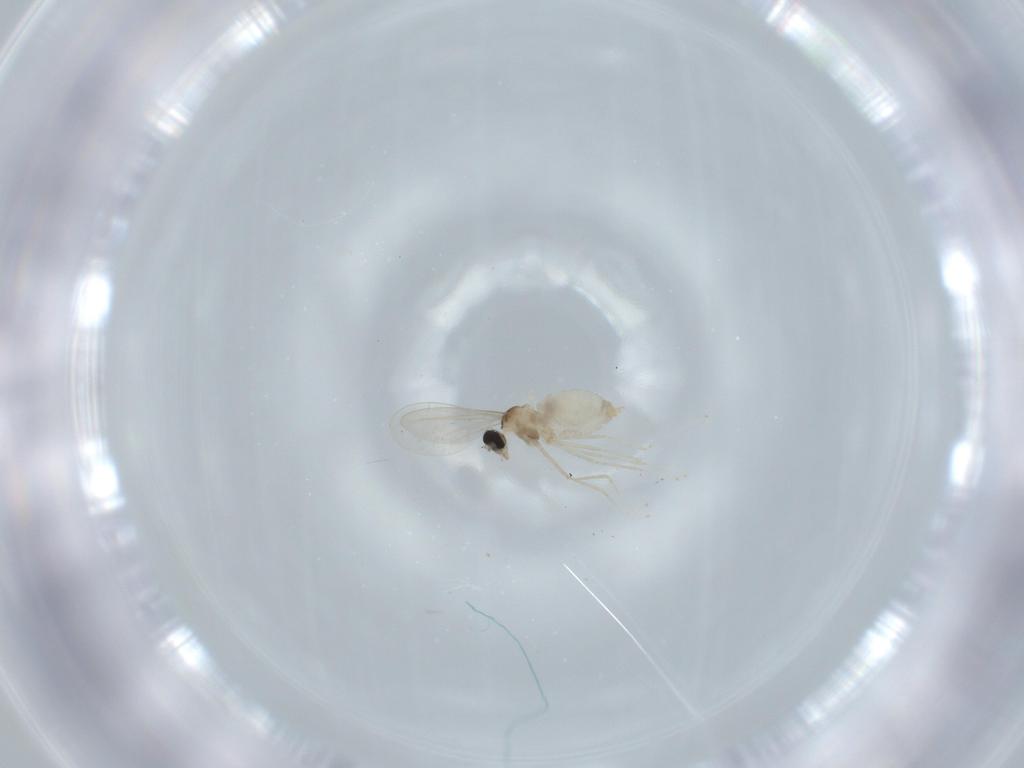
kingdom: Animalia
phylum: Arthropoda
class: Insecta
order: Diptera
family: Cecidomyiidae
